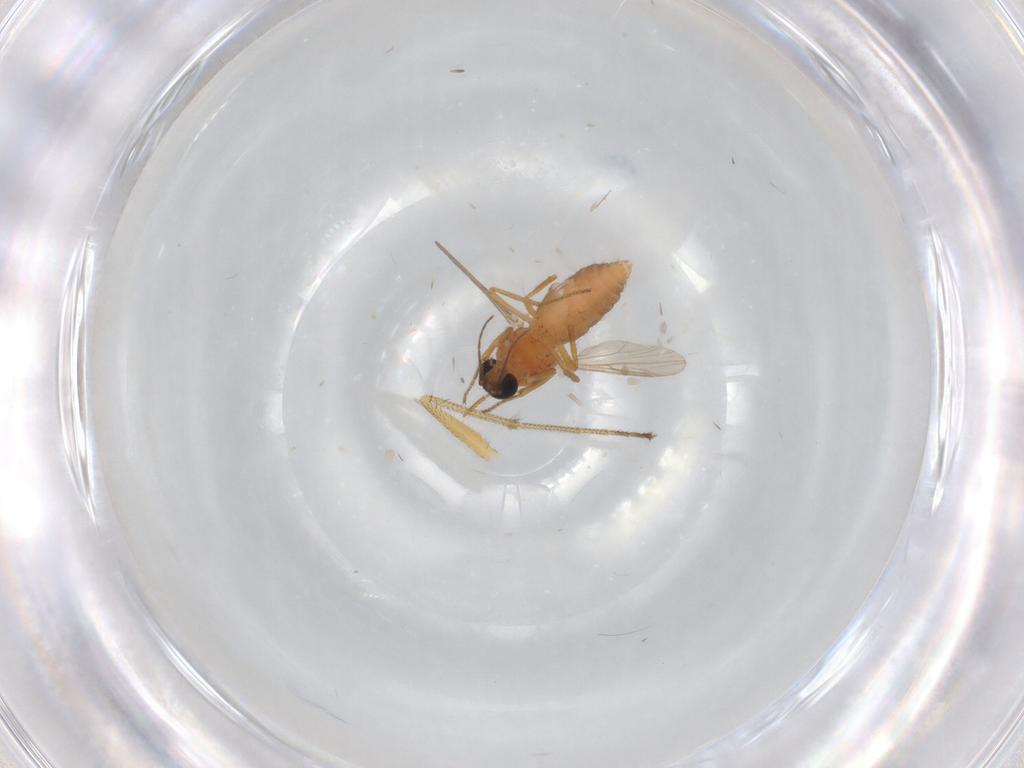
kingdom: Animalia
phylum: Arthropoda
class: Insecta
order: Diptera
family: Ceratopogonidae
